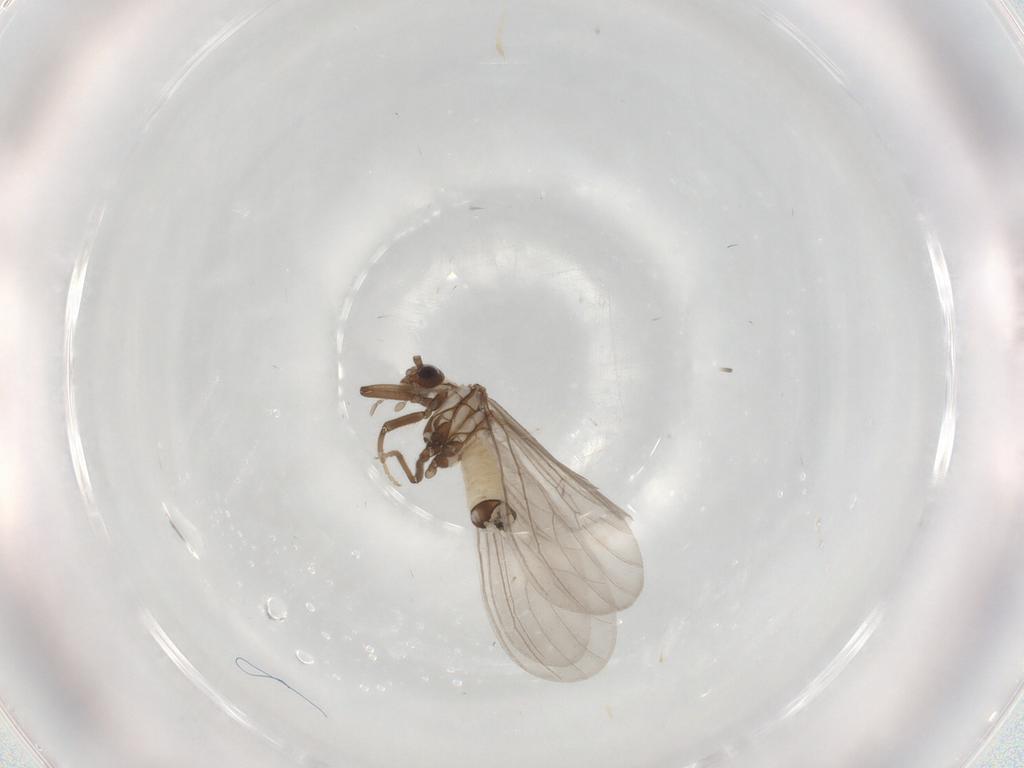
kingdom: Animalia
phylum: Arthropoda
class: Insecta
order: Neuroptera
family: Coniopterygidae
